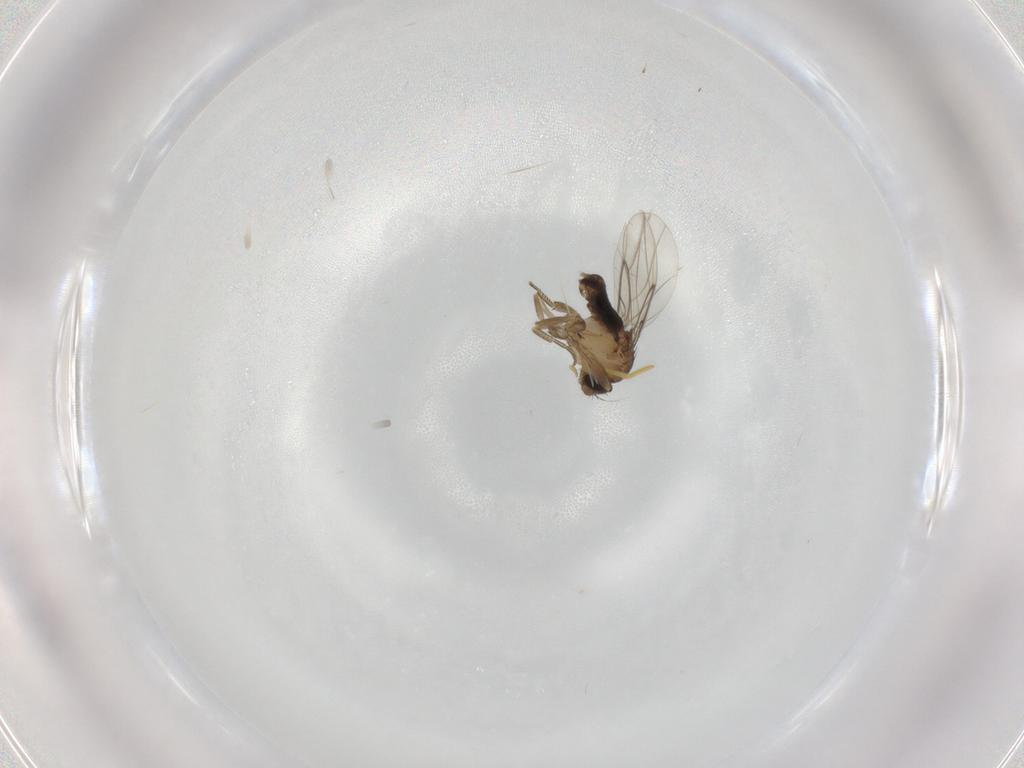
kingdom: Animalia
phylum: Arthropoda
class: Insecta
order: Diptera
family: Phoridae
